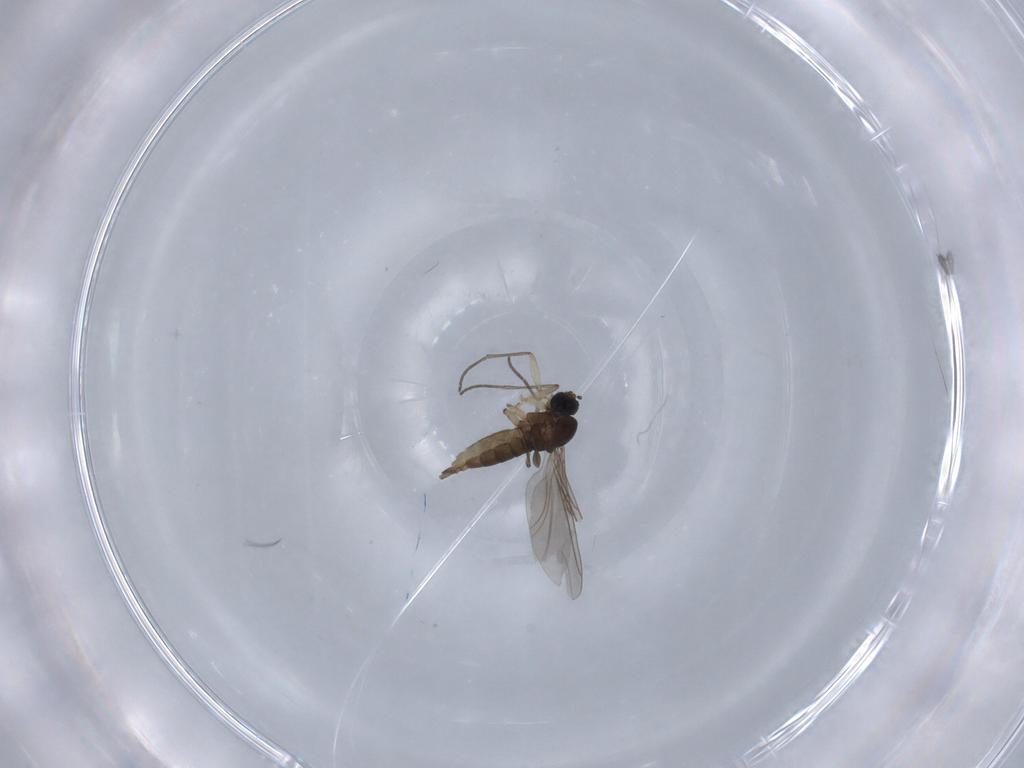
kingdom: Animalia
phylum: Arthropoda
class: Insecta
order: Diptera
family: Sciaridae
